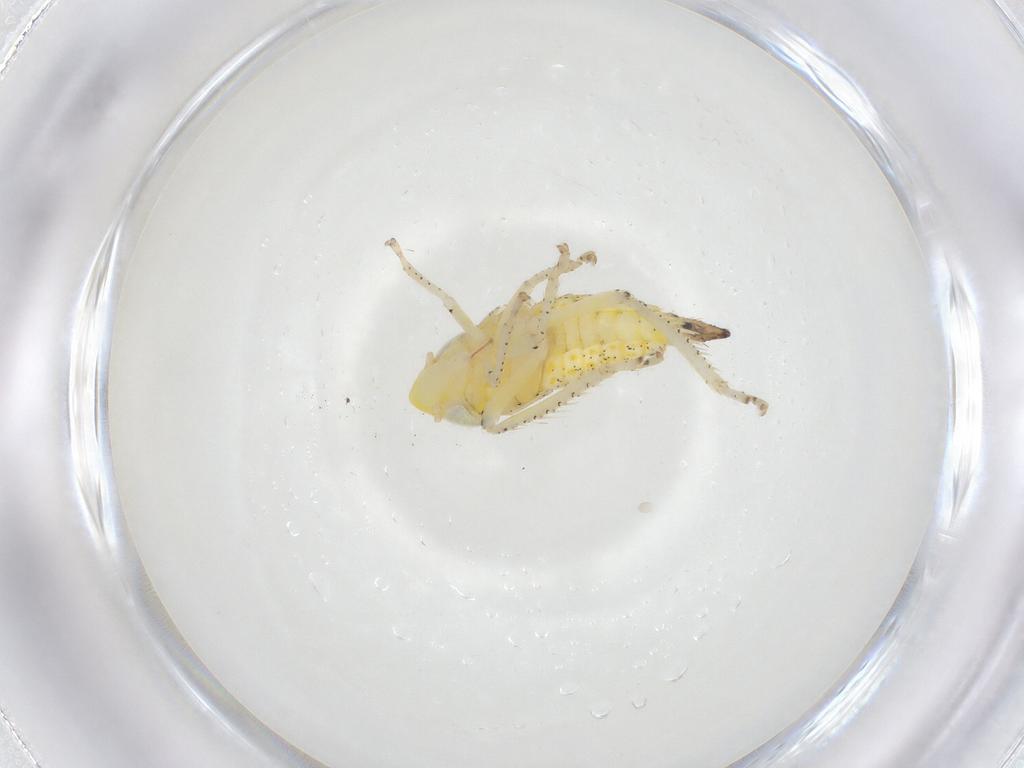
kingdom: Animalia
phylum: Arthropoda
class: Insecta
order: Hemiptera
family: Cicadellidae
